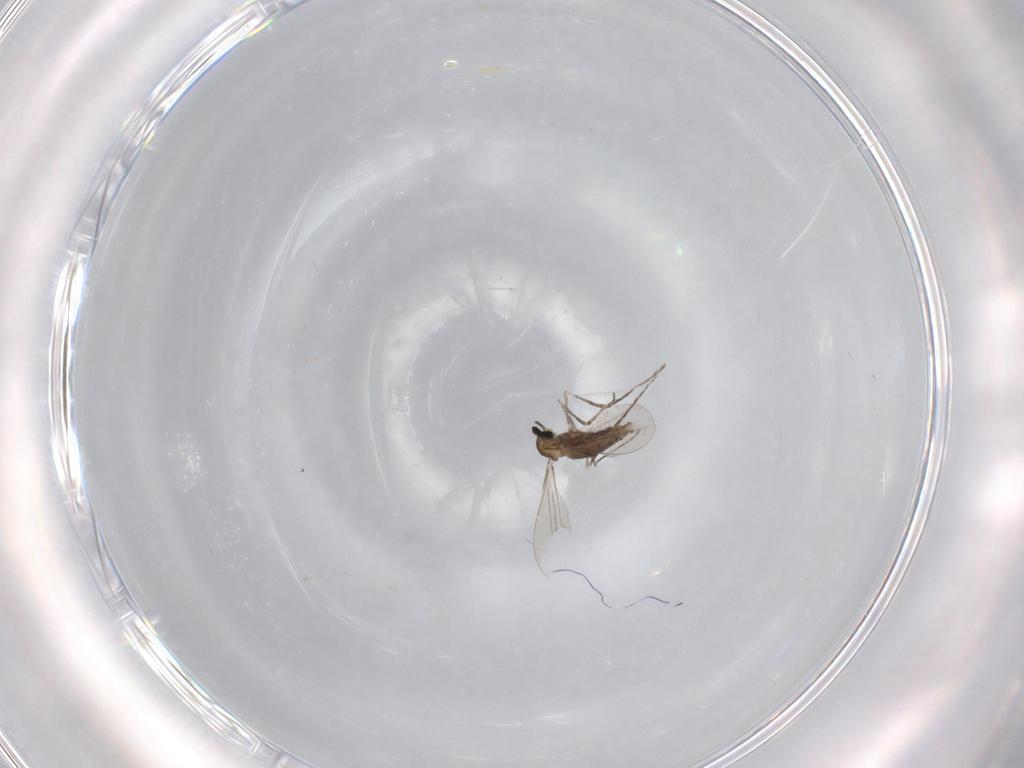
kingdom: Animalia
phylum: Arthropoda
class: Insecta
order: Diptera
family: Cecidomyiidae
